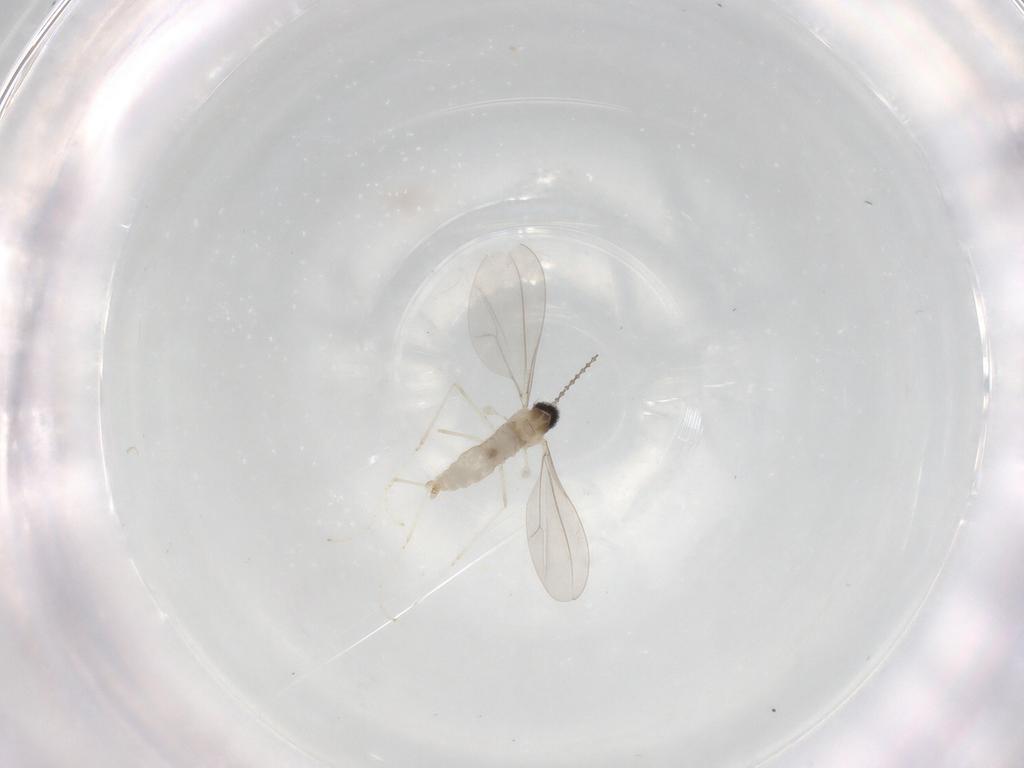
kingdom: Animalia
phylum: Arthropoda
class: Insecta
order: Diptera
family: Cecidomyiidae
